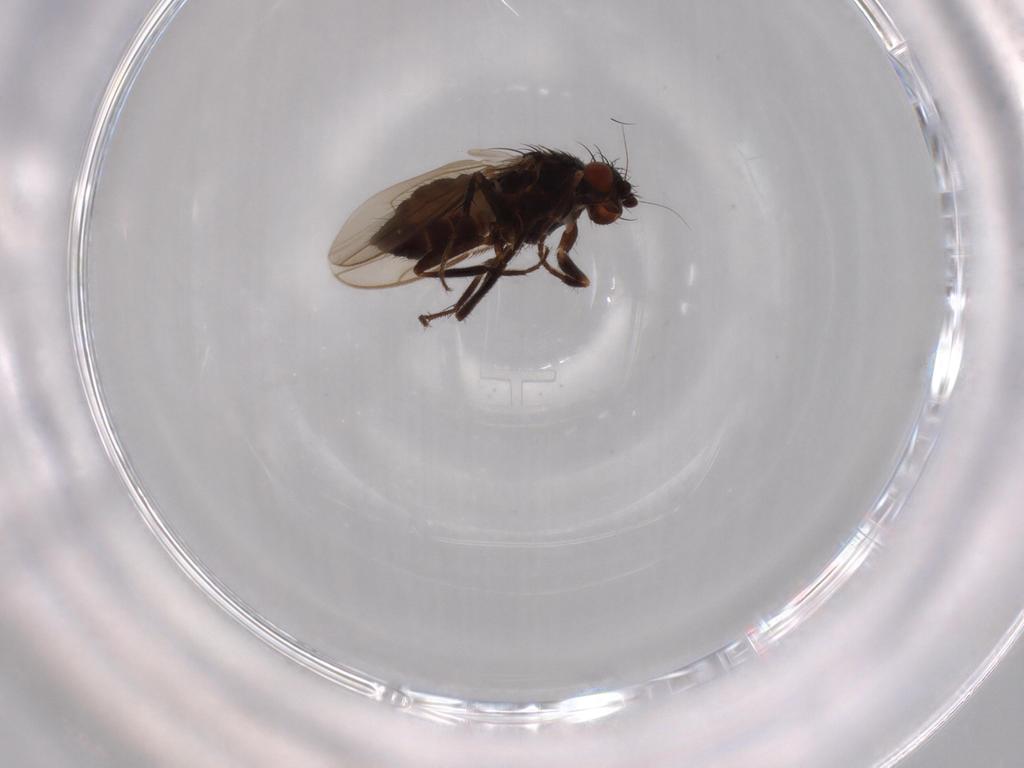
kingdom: Animalia
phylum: Arthropoda
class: Insecta
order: Diptera
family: Sphaeroceridae
